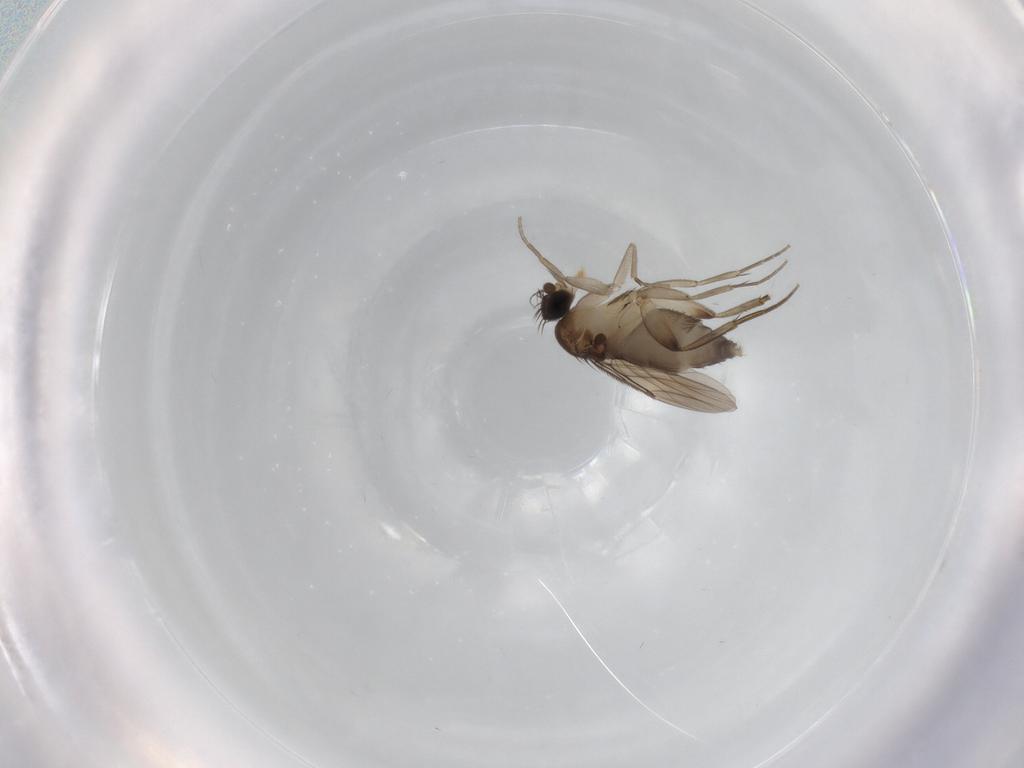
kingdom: Animalia
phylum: Arthropoda
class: Insecta
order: Diptera
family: Phoridae
